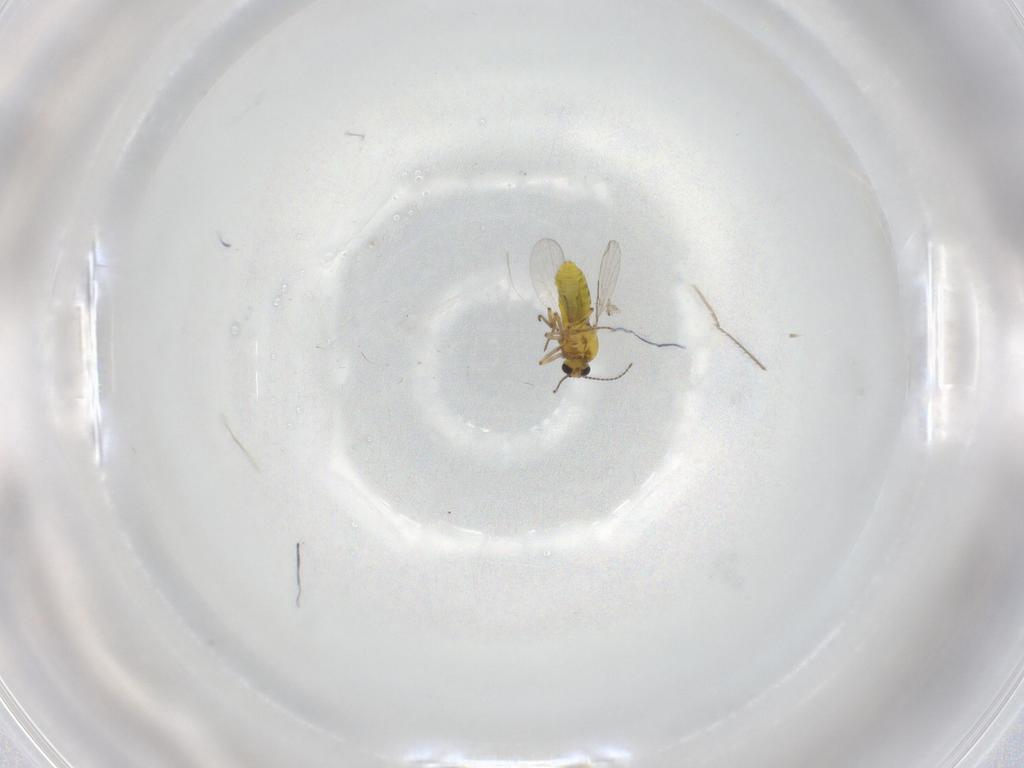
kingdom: Animalia
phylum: Arthropoda
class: Insecta
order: Diptera
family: Ceratopogonidae
